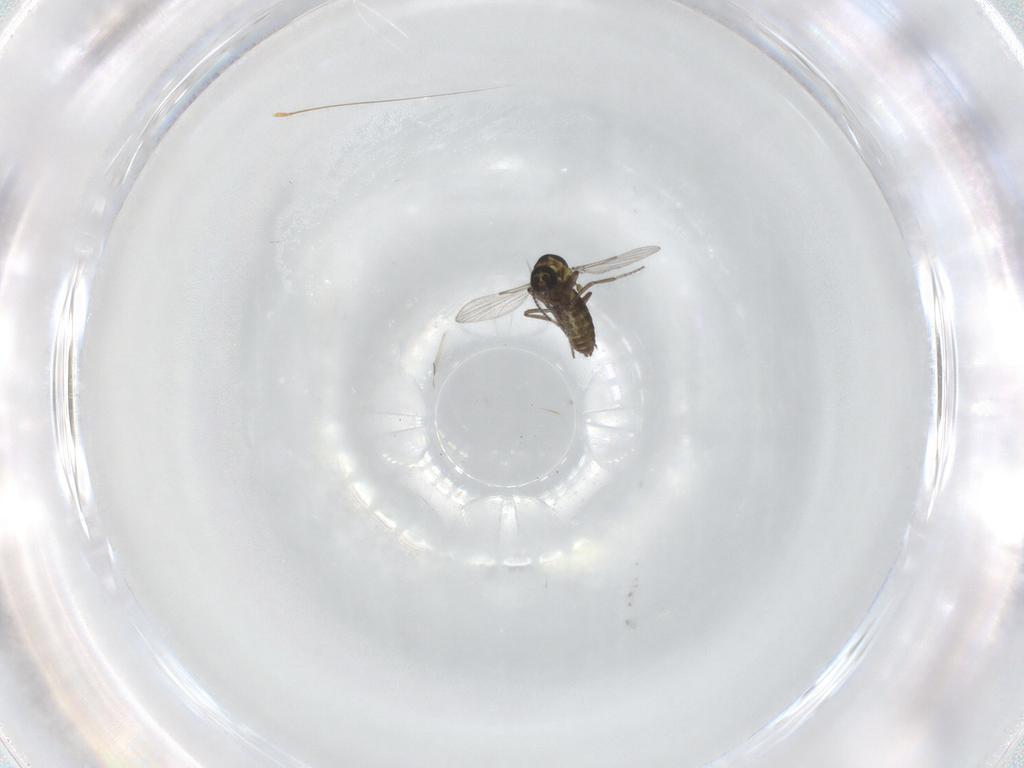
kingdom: Animalia
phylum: Arthropoda
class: Insecta
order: Diptera
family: Ceratopogonidae
